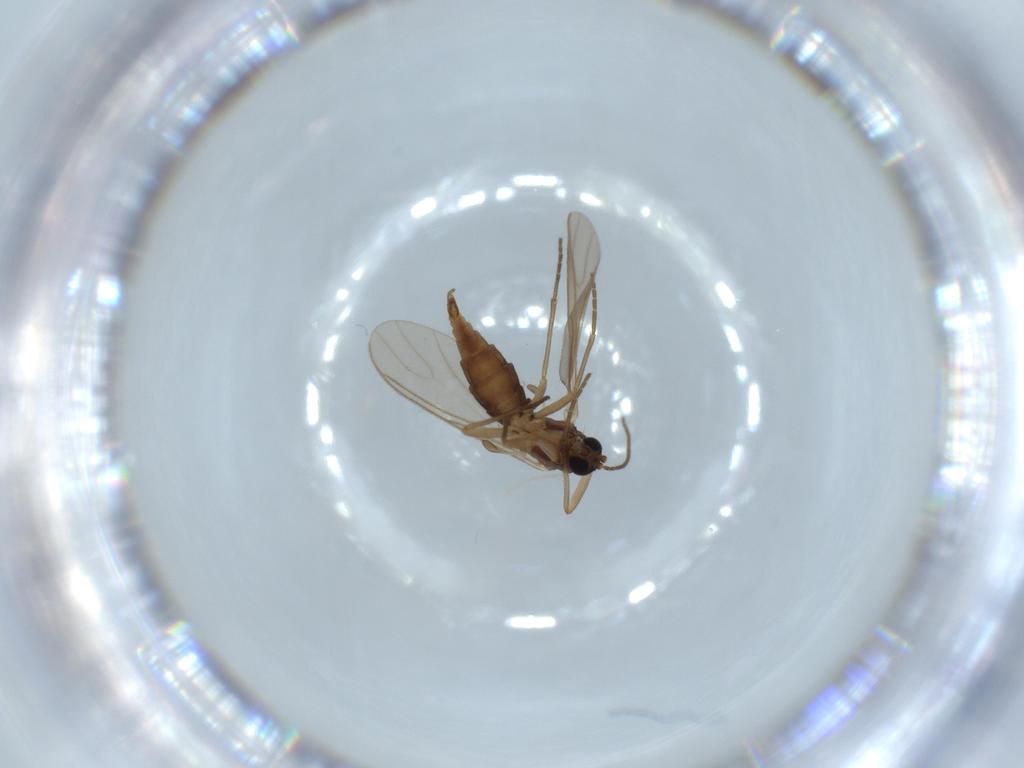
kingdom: Animalia
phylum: Arthropoda
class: Insecta
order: Diptera
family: Sciaridae
